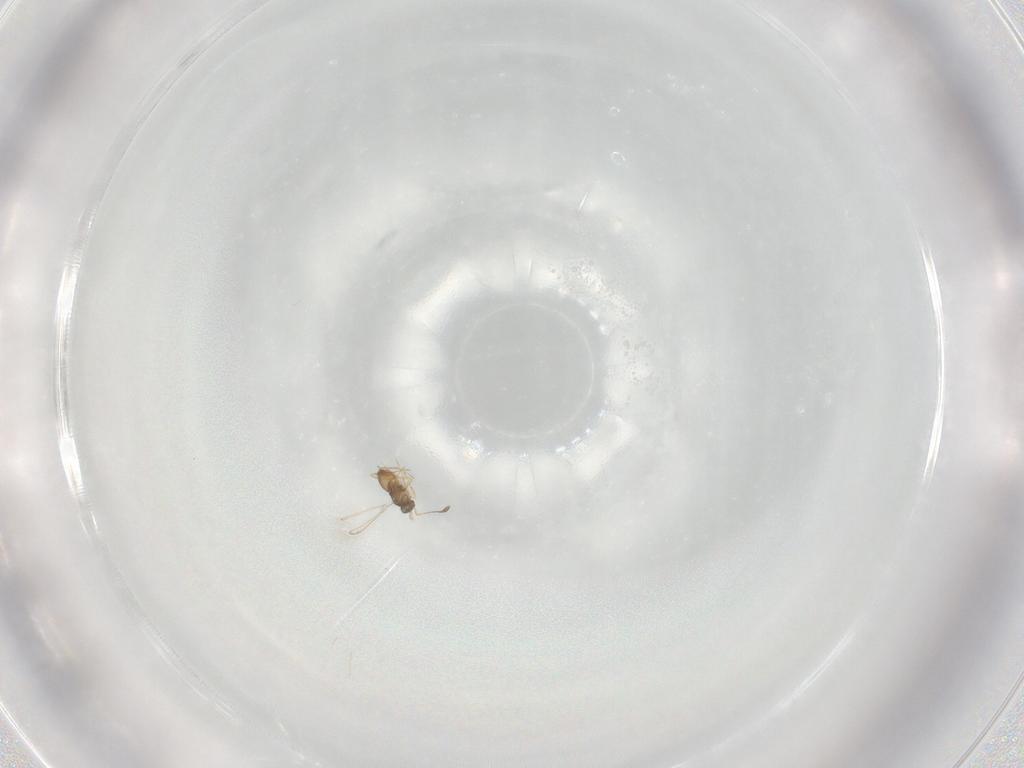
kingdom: Animalia
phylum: Arthropoda
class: Insecta
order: Hymenoptera
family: Mymaridae
